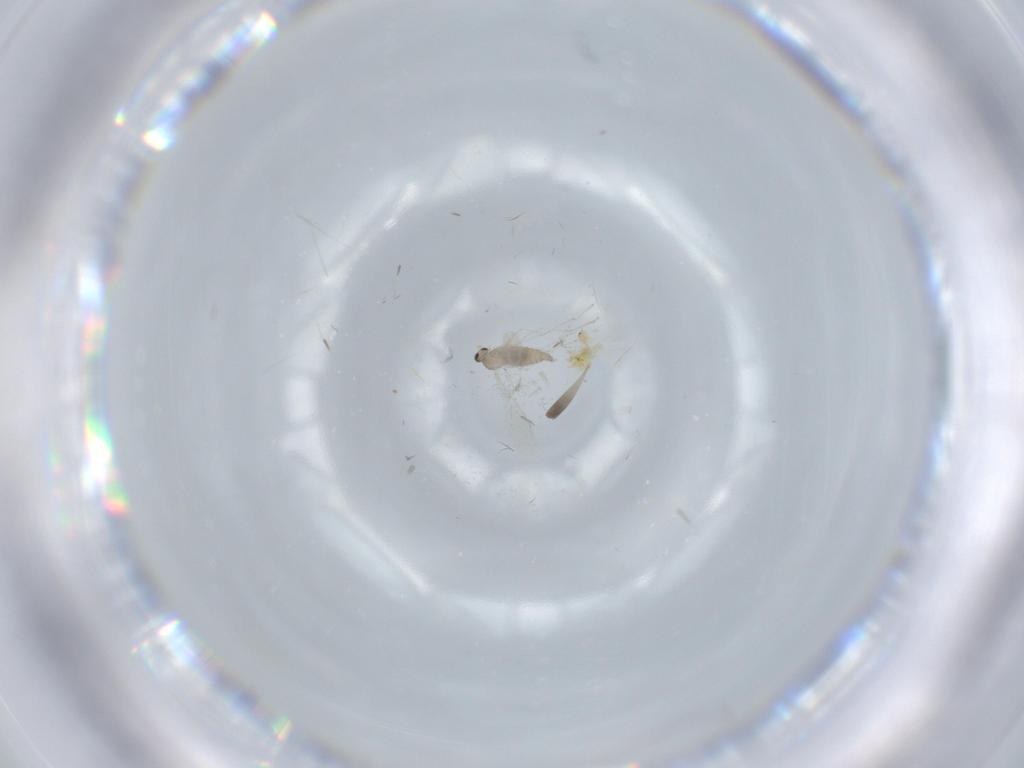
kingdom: Animalia
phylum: Arthropoda
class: Insecta
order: Diptera
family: Cecidomyiidae
